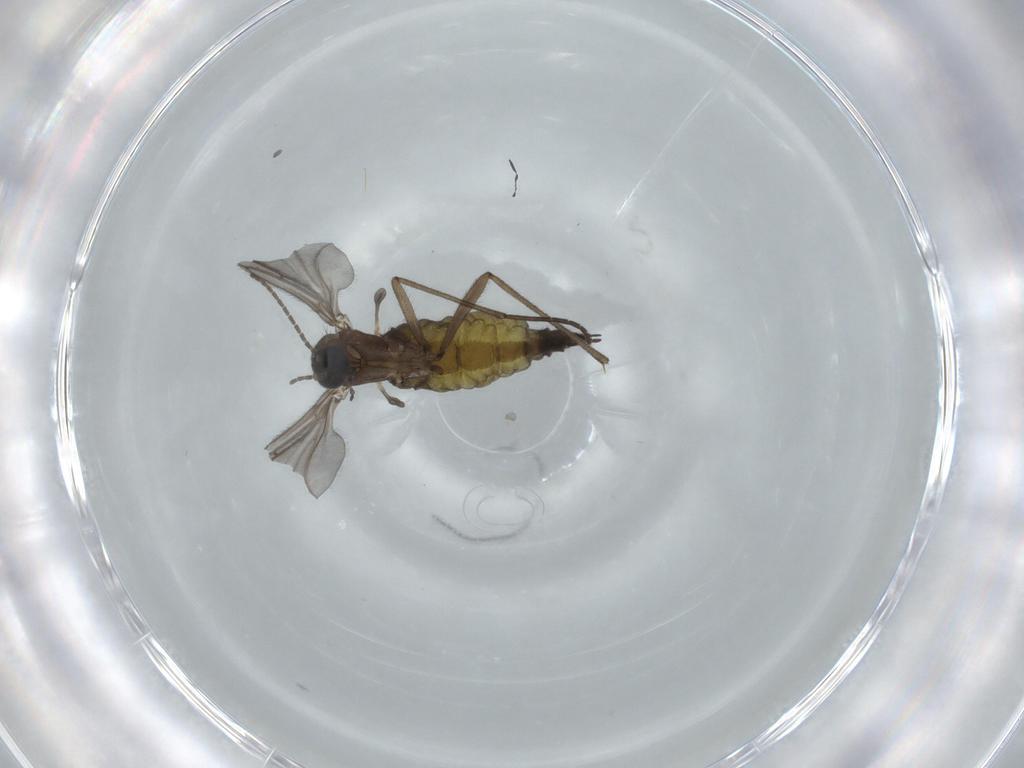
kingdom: Animalia
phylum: Arthropoda
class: Insecta
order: Diptera
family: Sciaridae
